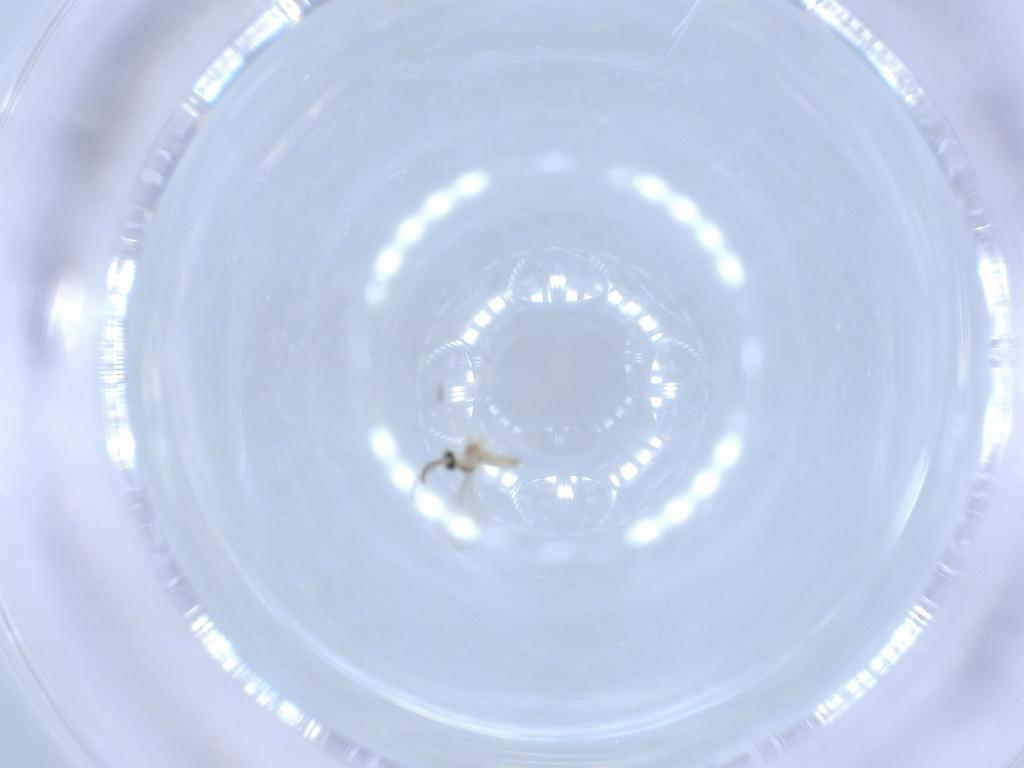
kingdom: Animalia
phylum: Arthropoda
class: Insecta
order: Diptera
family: Cecidomyiidae
